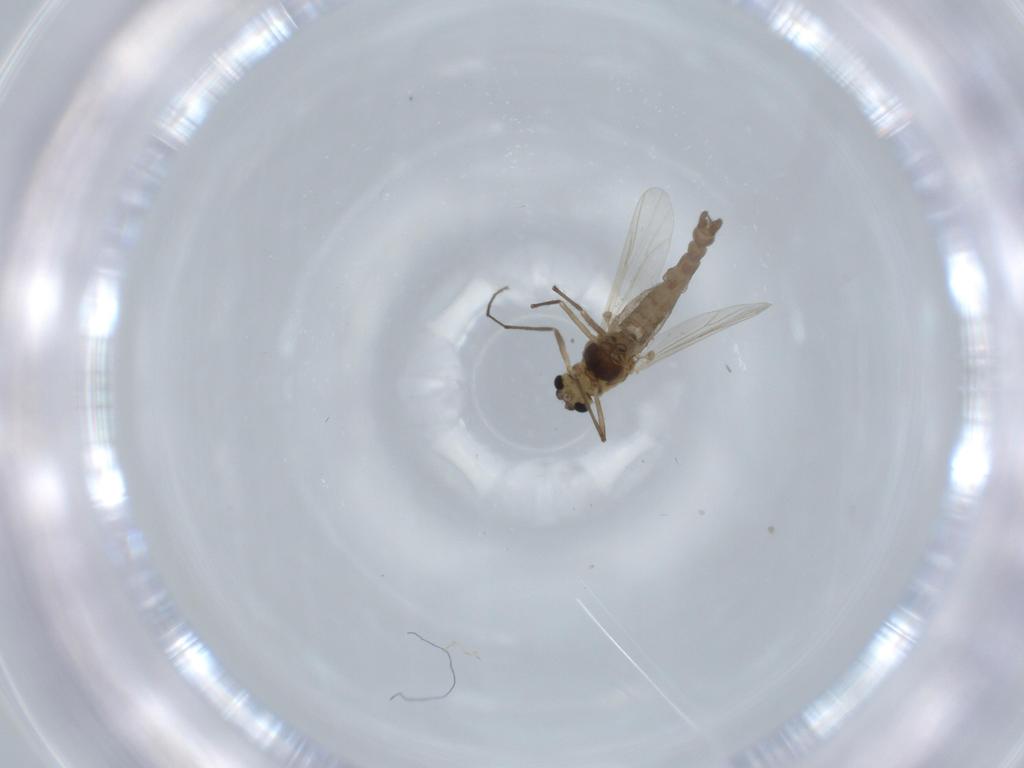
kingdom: Animalia
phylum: Arthropoda
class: Insecta
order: Diptera
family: Chironomidae
